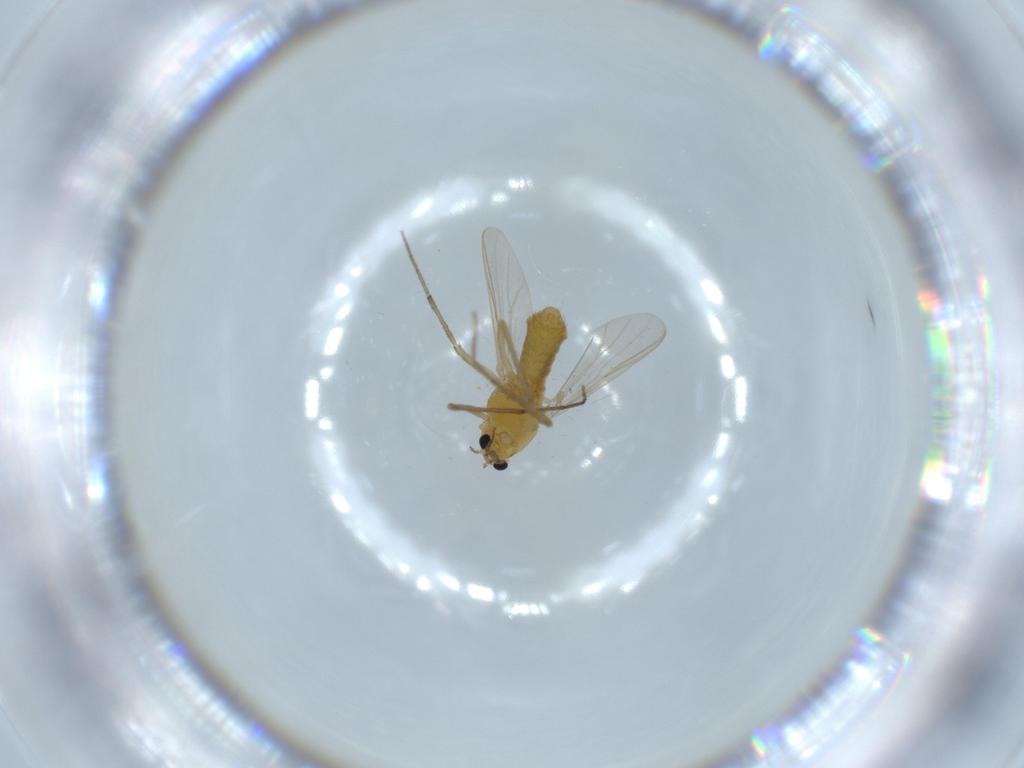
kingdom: Animalia
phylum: Arthropoda
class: Insecta
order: Diptera
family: Chironomidae
